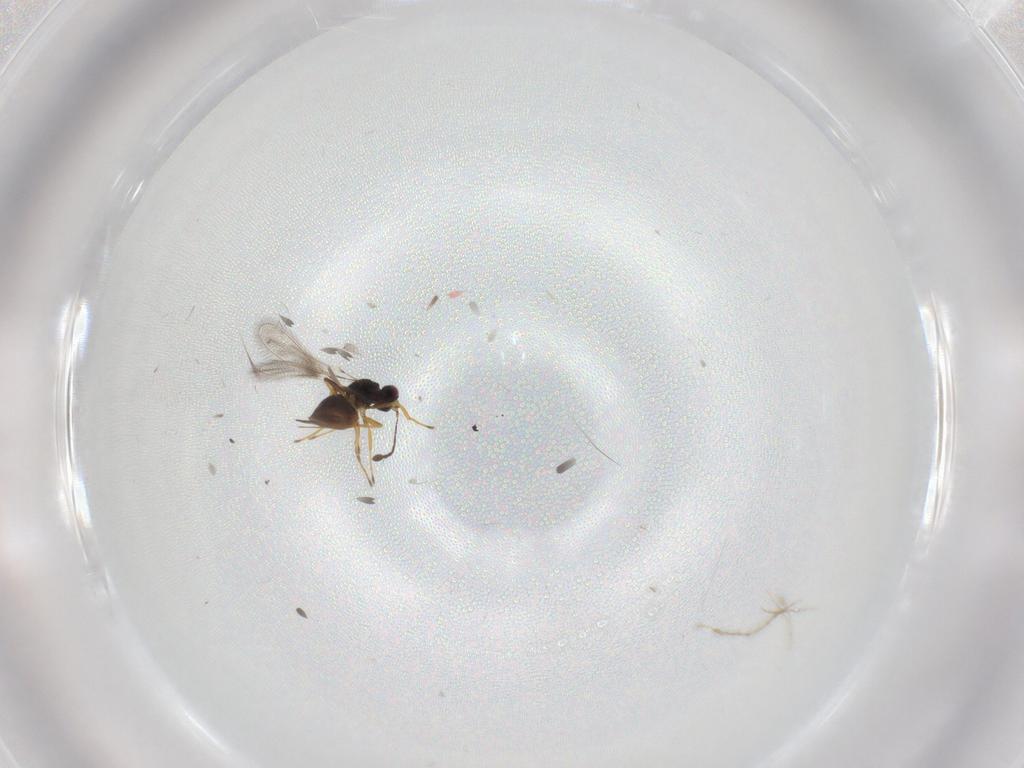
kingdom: Animalia
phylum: Arthropoda
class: Insecta
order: Hymenoptera
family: Mymaridae
